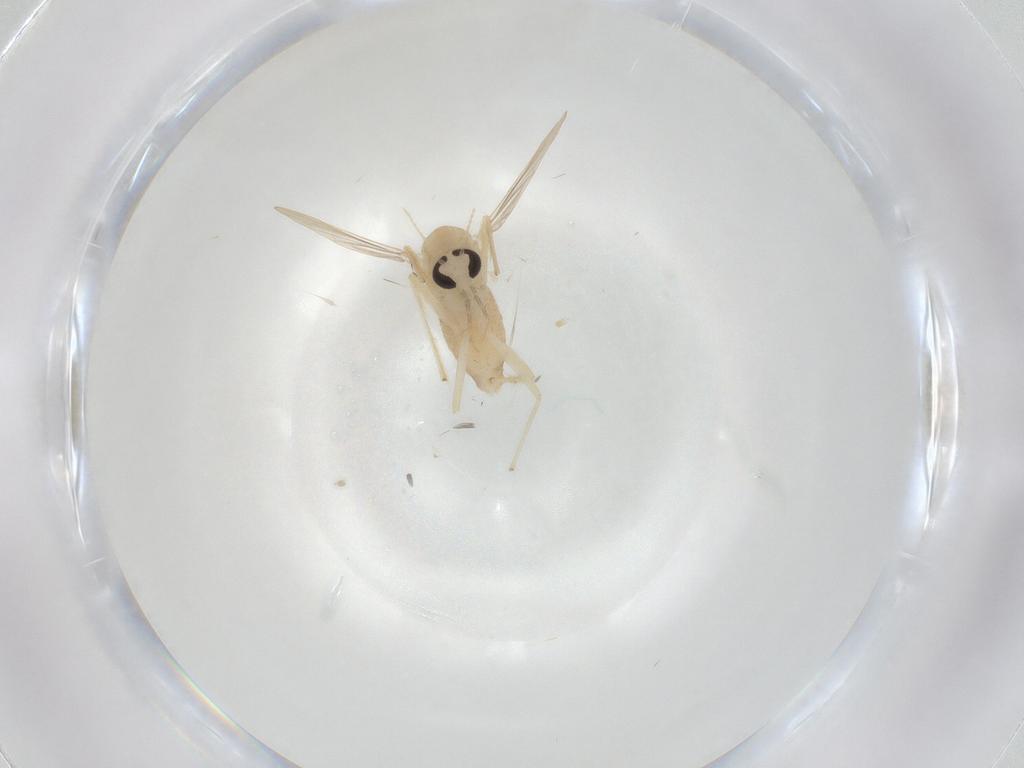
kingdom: Animalia
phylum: Arthropoda
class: Insecta
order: Diptera
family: Chironomidae
